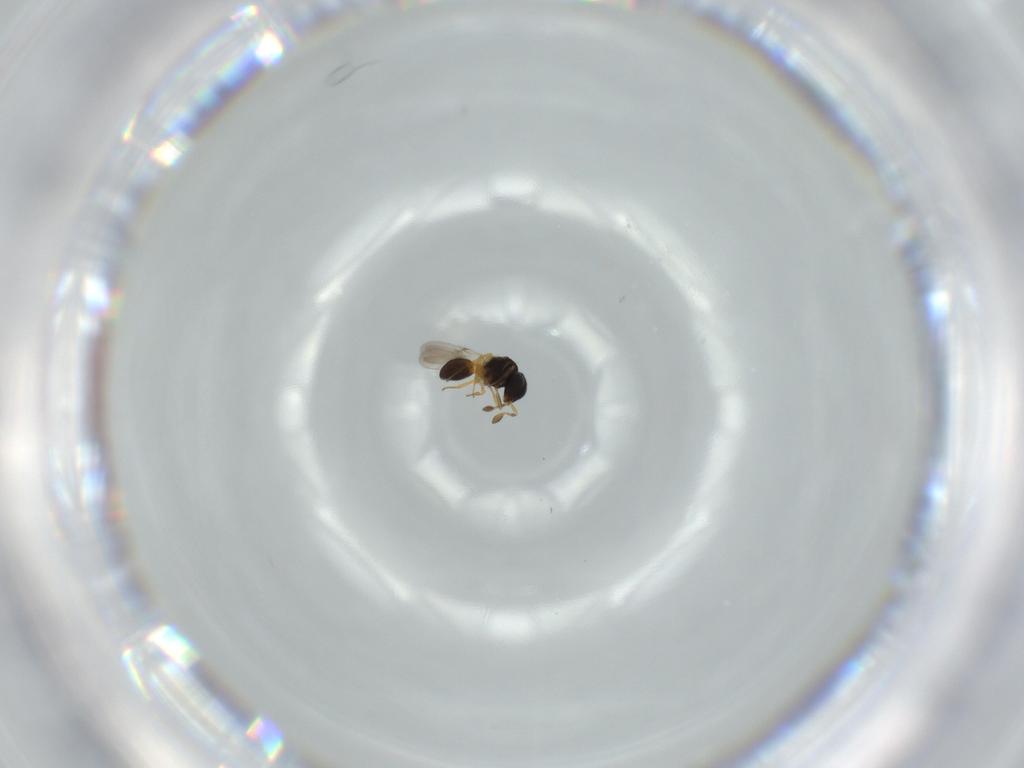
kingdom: Animalia
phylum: Arthropoda
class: Insecta
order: Hymenoptera
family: Scelionidae
